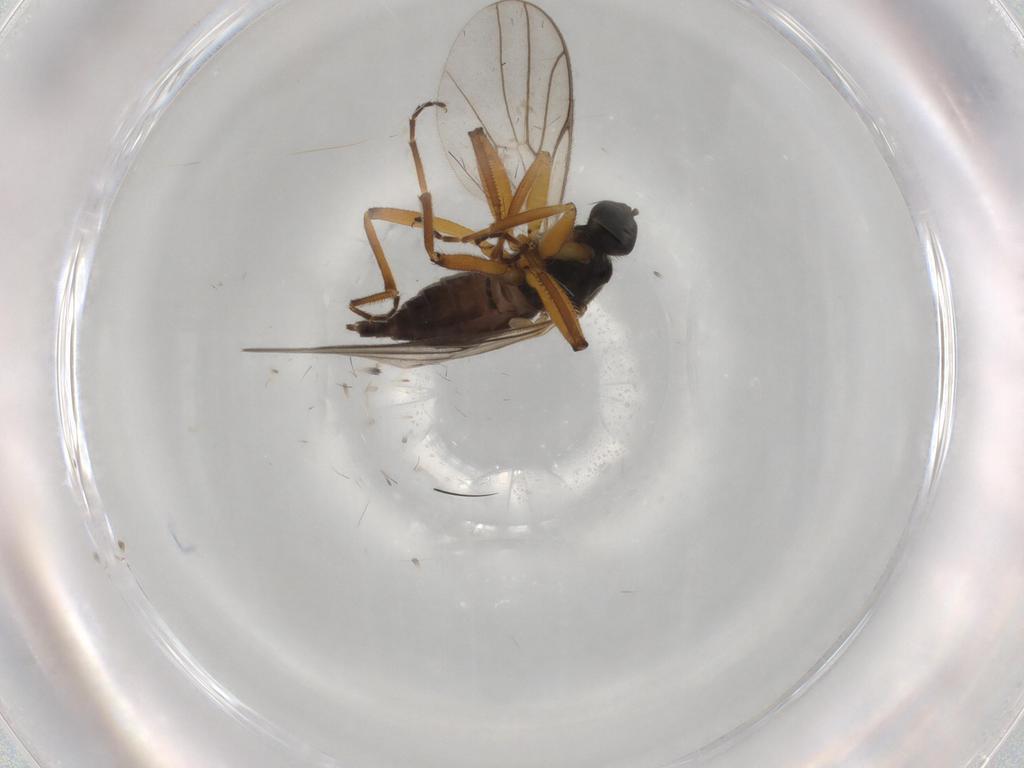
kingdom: Animalia
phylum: Arthropoda
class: Insecta
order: Diptera
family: Hybotidae
